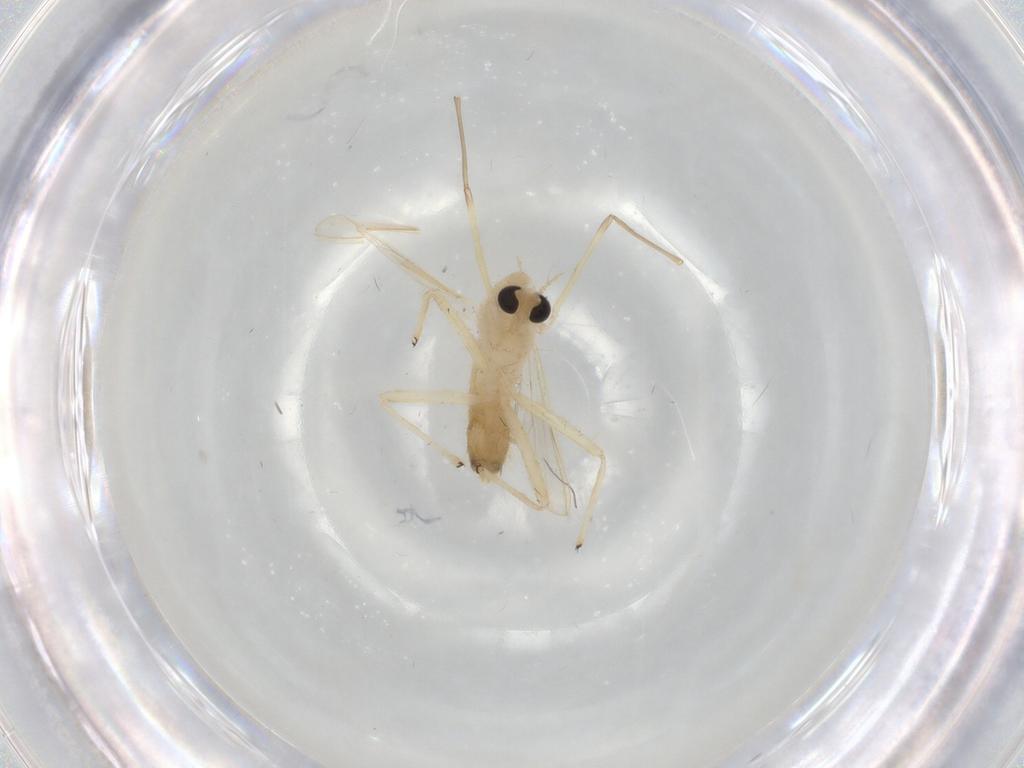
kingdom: Animalia
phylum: Arthropoda
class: Insecta
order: Diptera
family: Chironomidae
